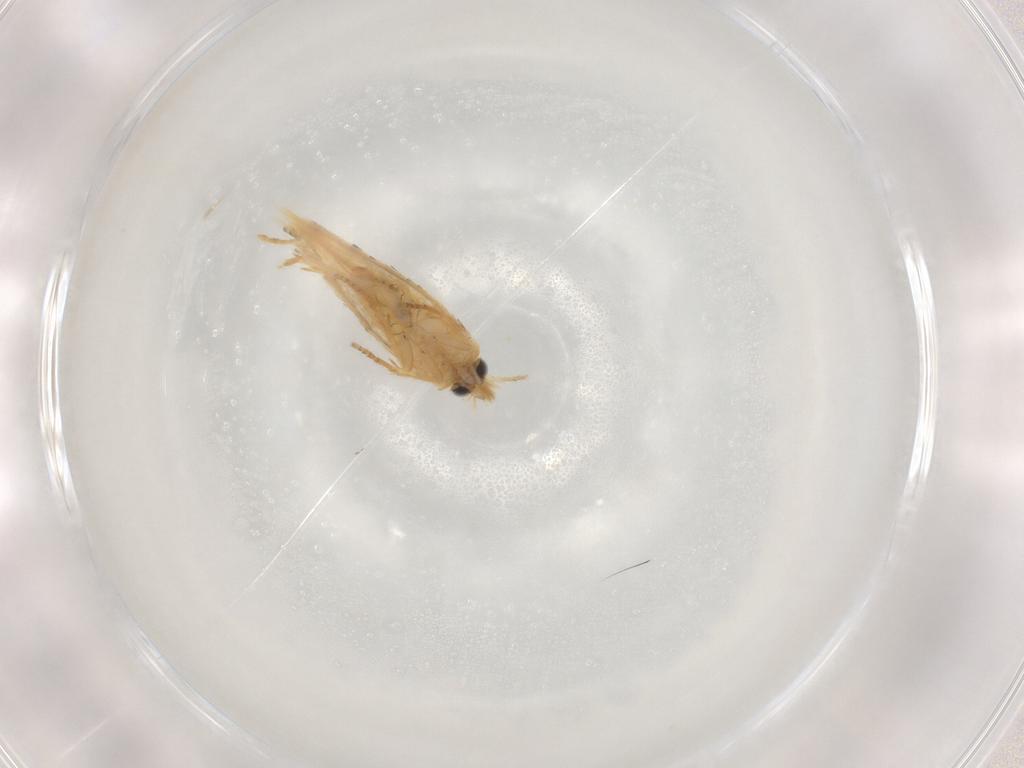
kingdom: Animalia
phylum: Arthropoda
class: Insecta
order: Lepidoptera
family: Nepticulidae
